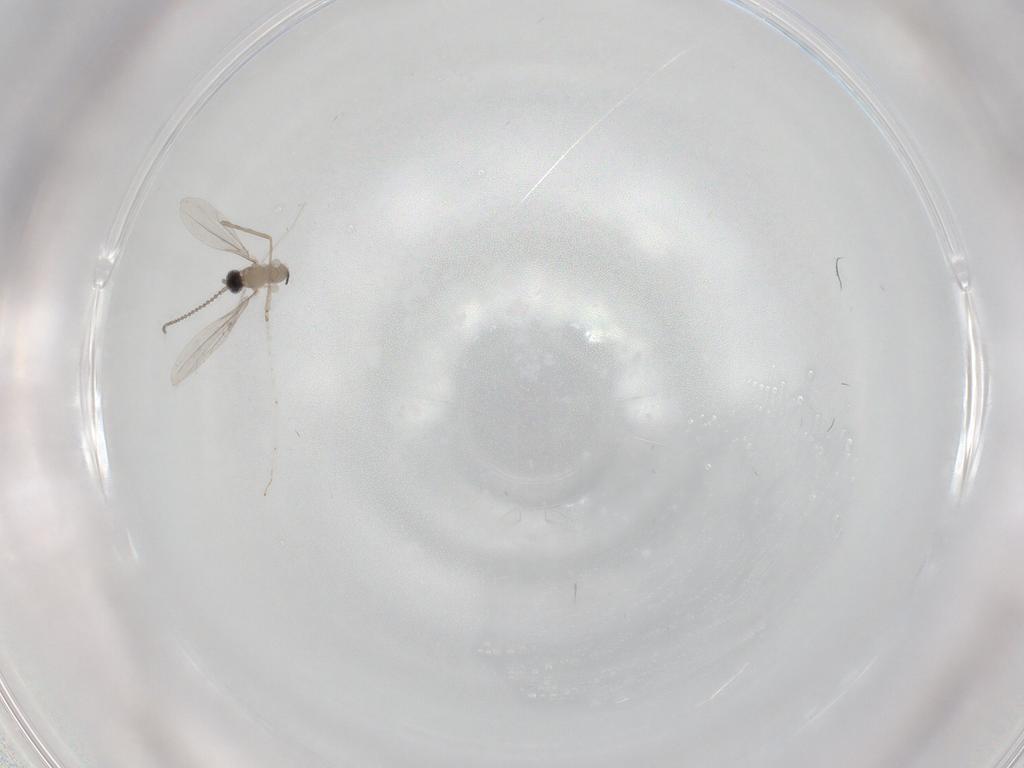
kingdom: Animalia
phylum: Arthropoda
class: Insecta
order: Diptera
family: Cecidomyiidae
